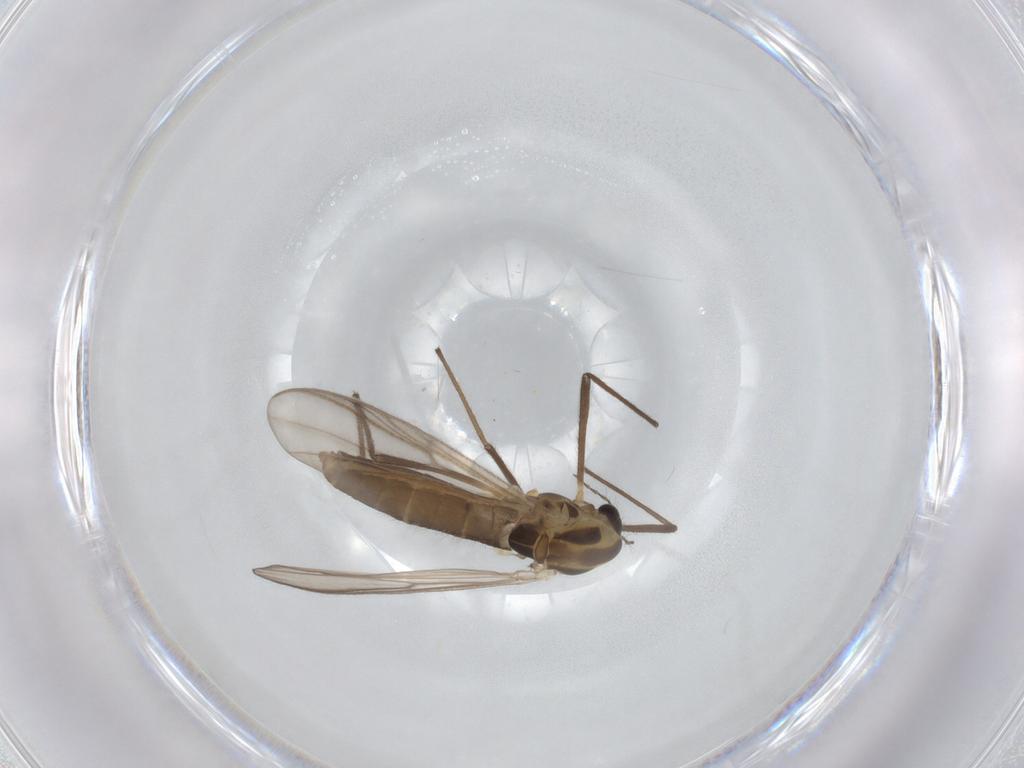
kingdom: Animalia
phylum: Arthropoda
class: Insecta
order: Diptera
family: Chironomidae
